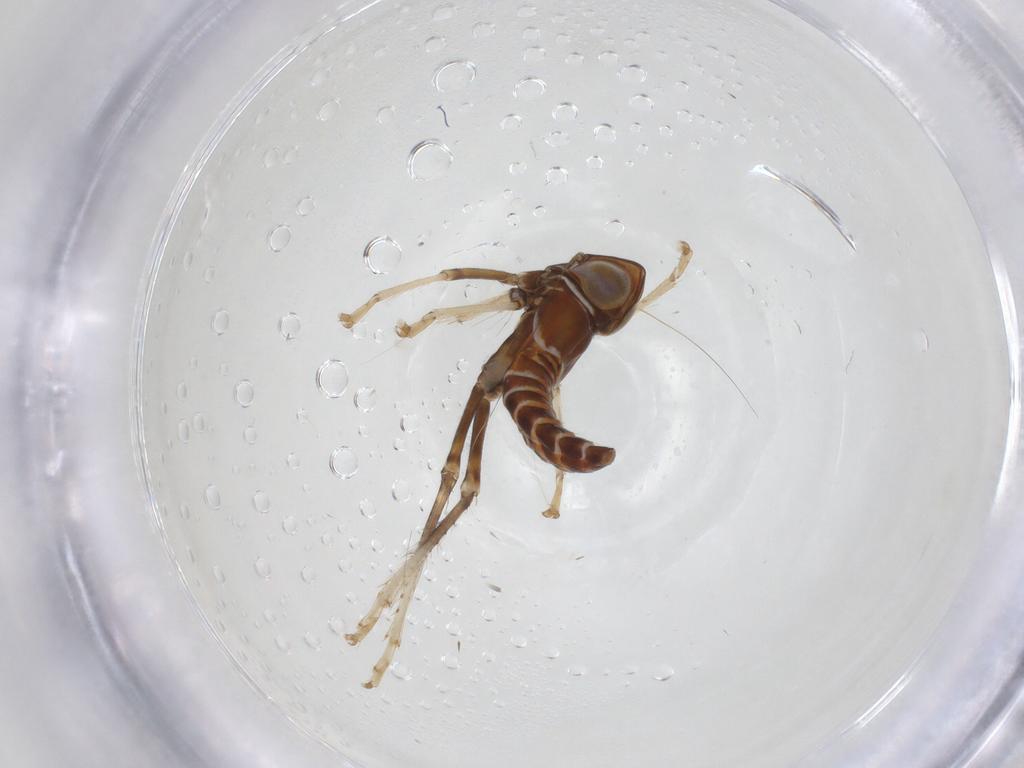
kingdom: Animalia
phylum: Arthropoda
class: Insecta
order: Hemiptera
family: Cicadellidae
